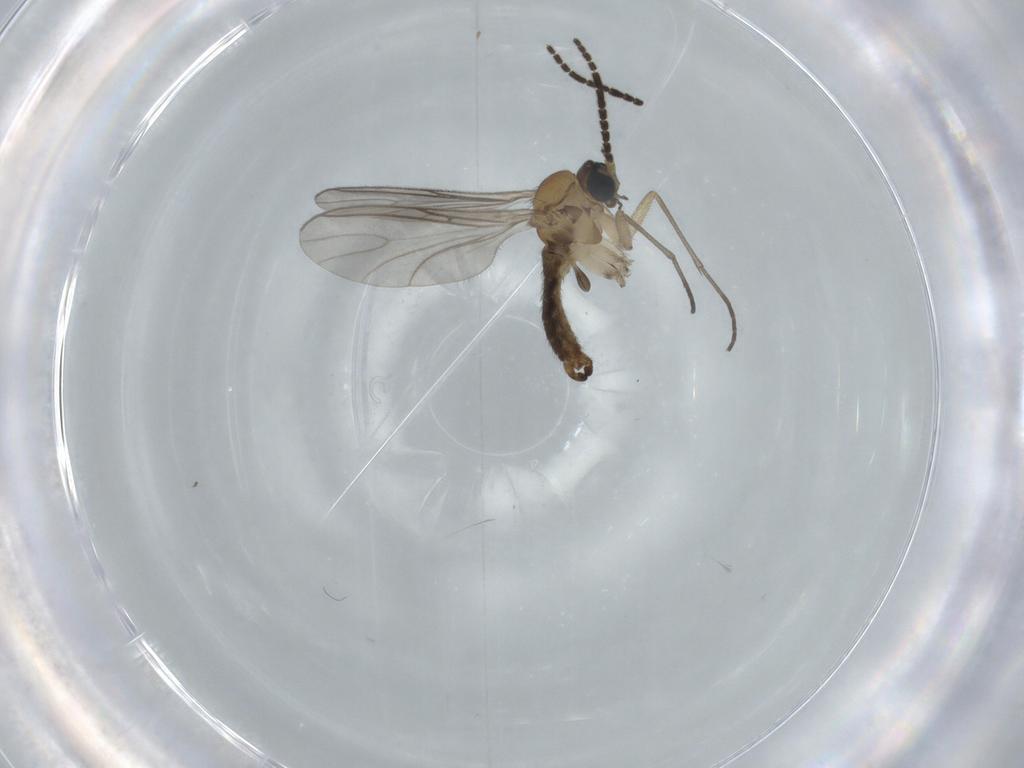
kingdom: Animalia
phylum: Arthropoda
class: Insecta
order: Diptera
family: Sciaridae
